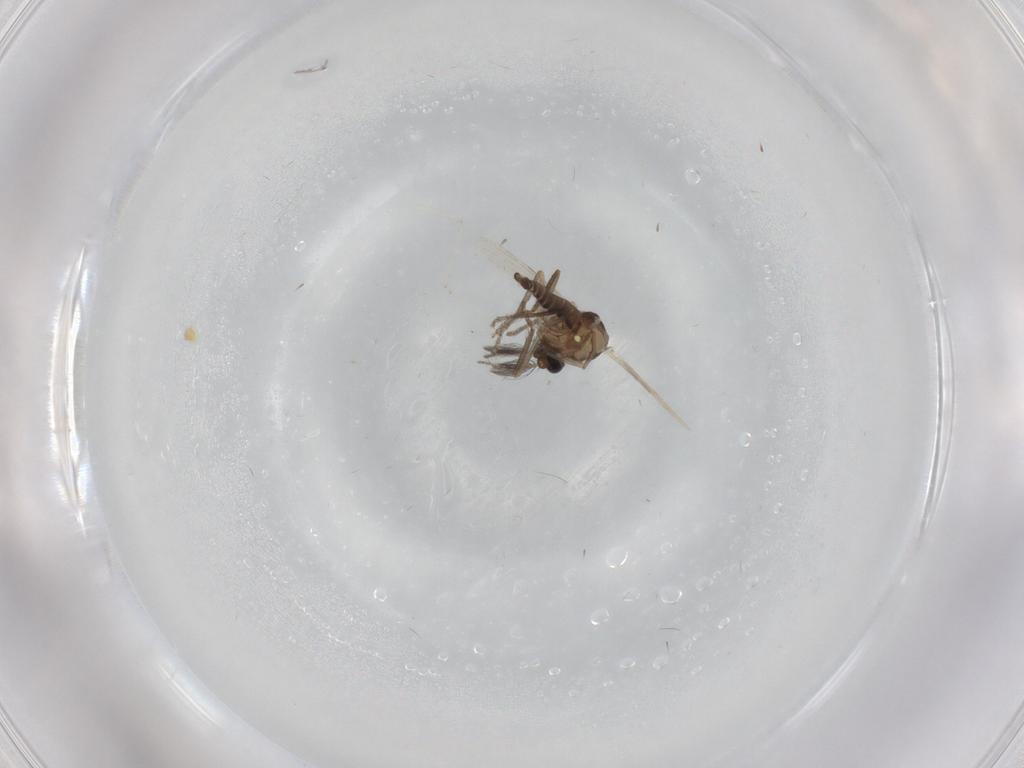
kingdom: Animalia
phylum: Arthropoda
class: Insecta
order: Diptera
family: Ceratopogonidae
